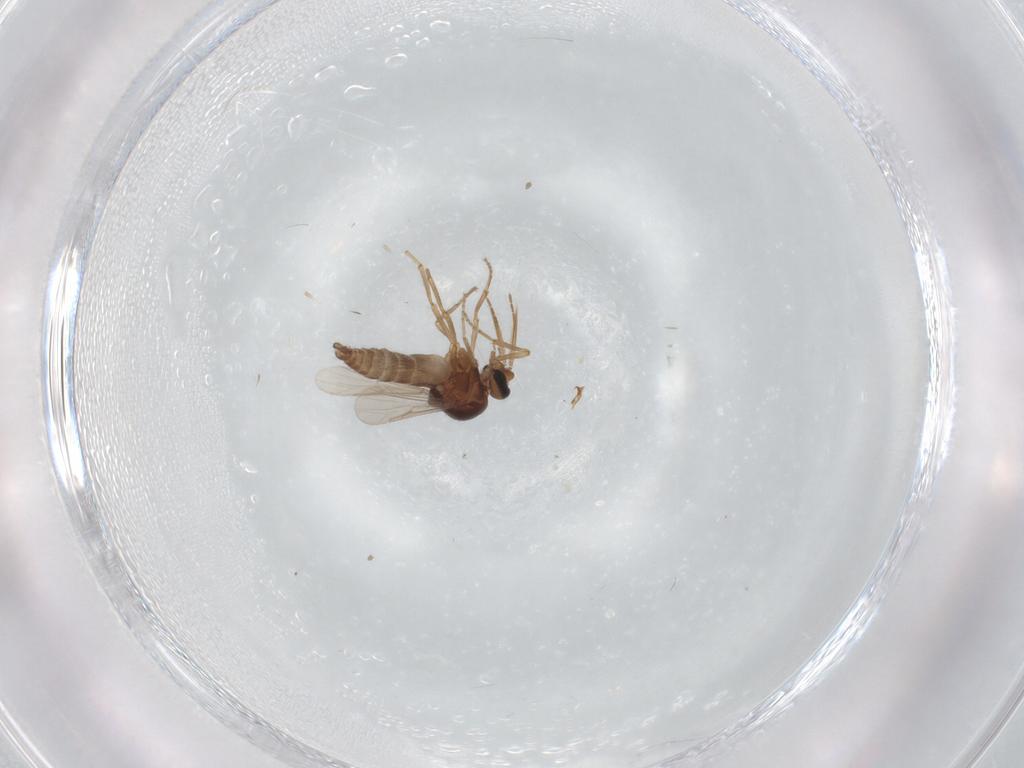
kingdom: Animalia
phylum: Arthropoda
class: Insecta
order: Diptera
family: Ceratopogonidae
